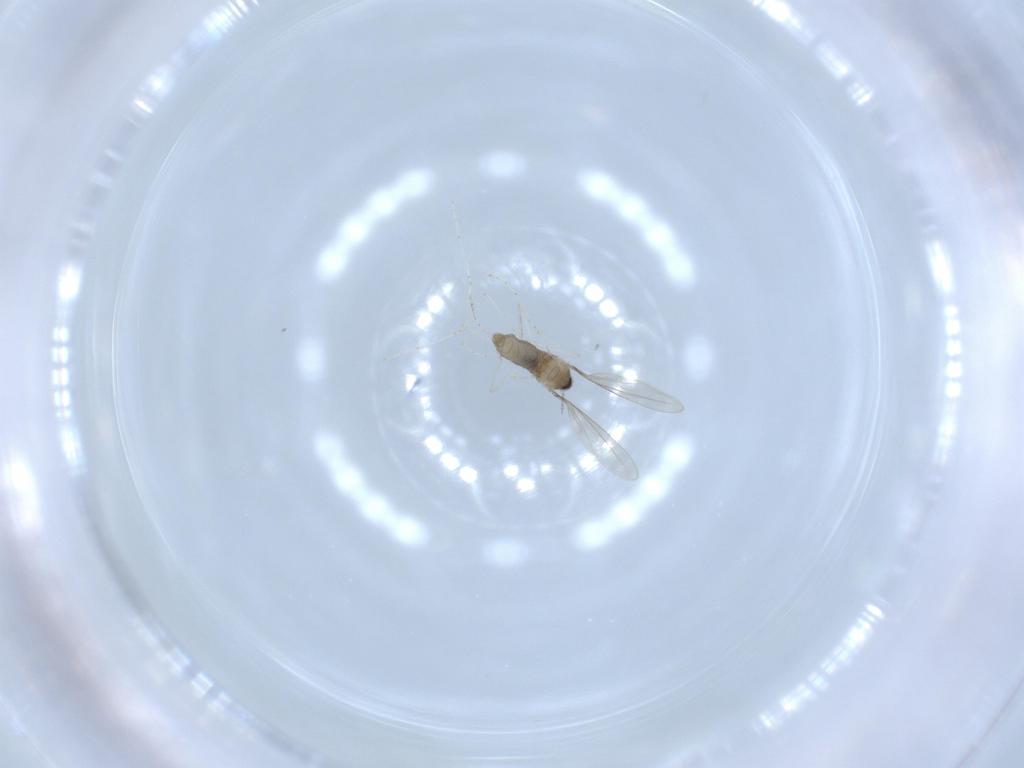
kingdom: Animalia
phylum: Arthropoda
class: Insecta
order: Diptera
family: Cecidomyiidae
